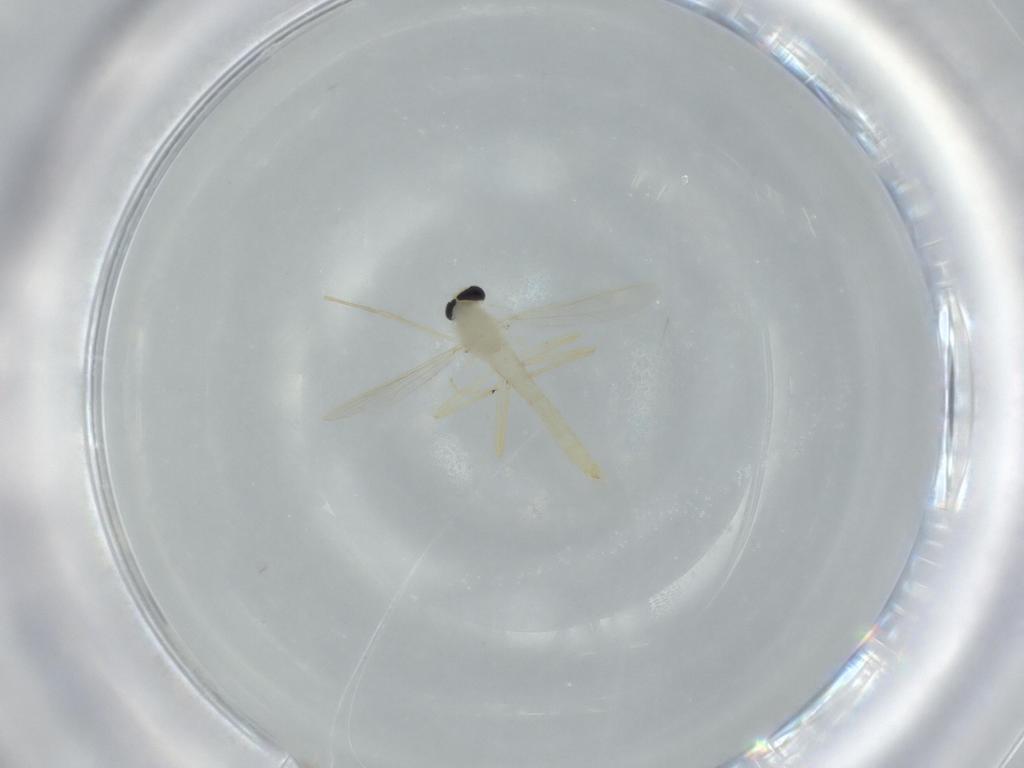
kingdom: Animalia
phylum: Arthropoda
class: Insecta
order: Diptera
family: Chironomidae
